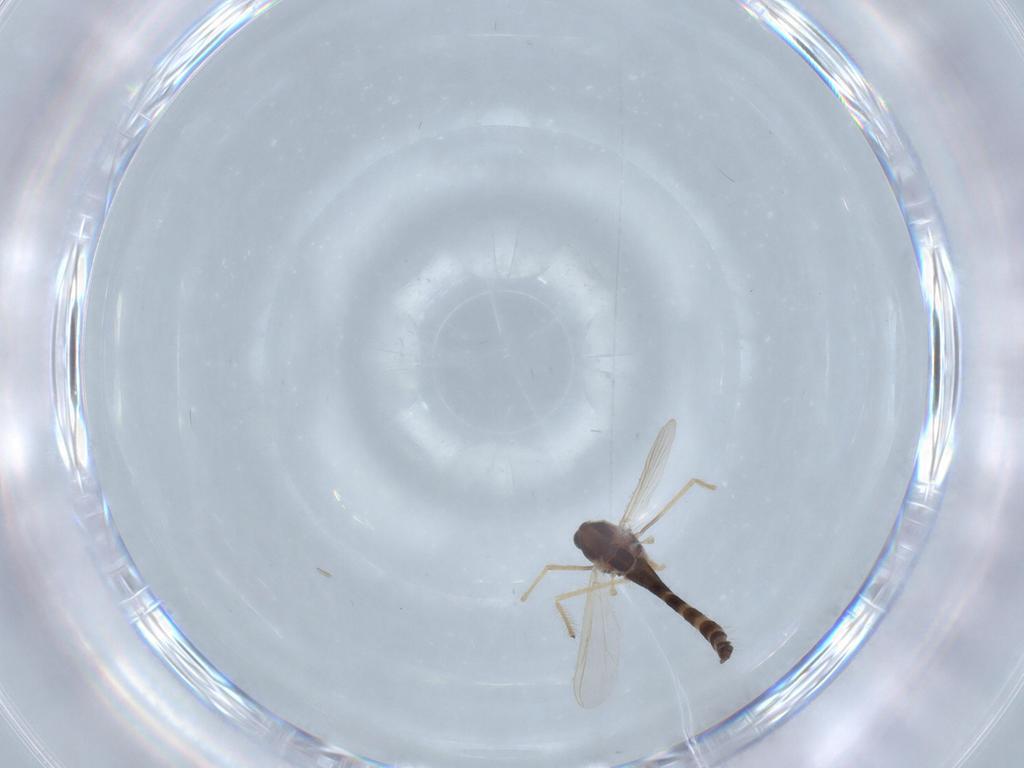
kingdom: Animalia
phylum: Arthropoda
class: Insecta
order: Diptera
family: Chironomidae
